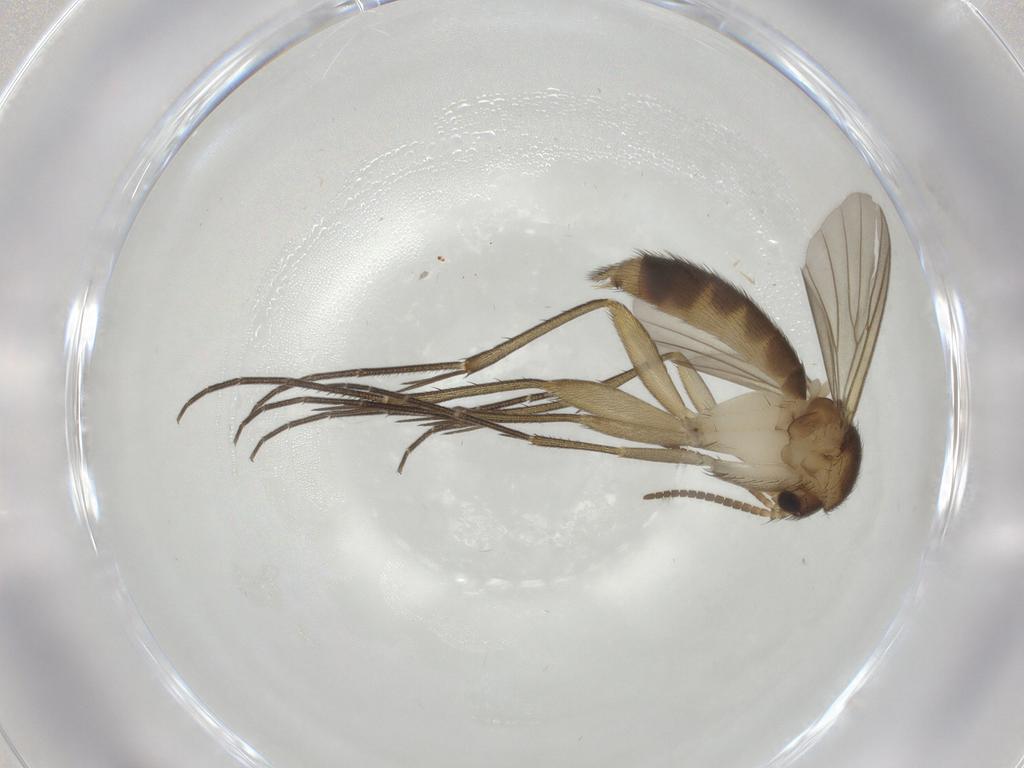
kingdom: Animalia
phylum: Arthropoda
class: Insecta
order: Diptera
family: Mycetophilidae
